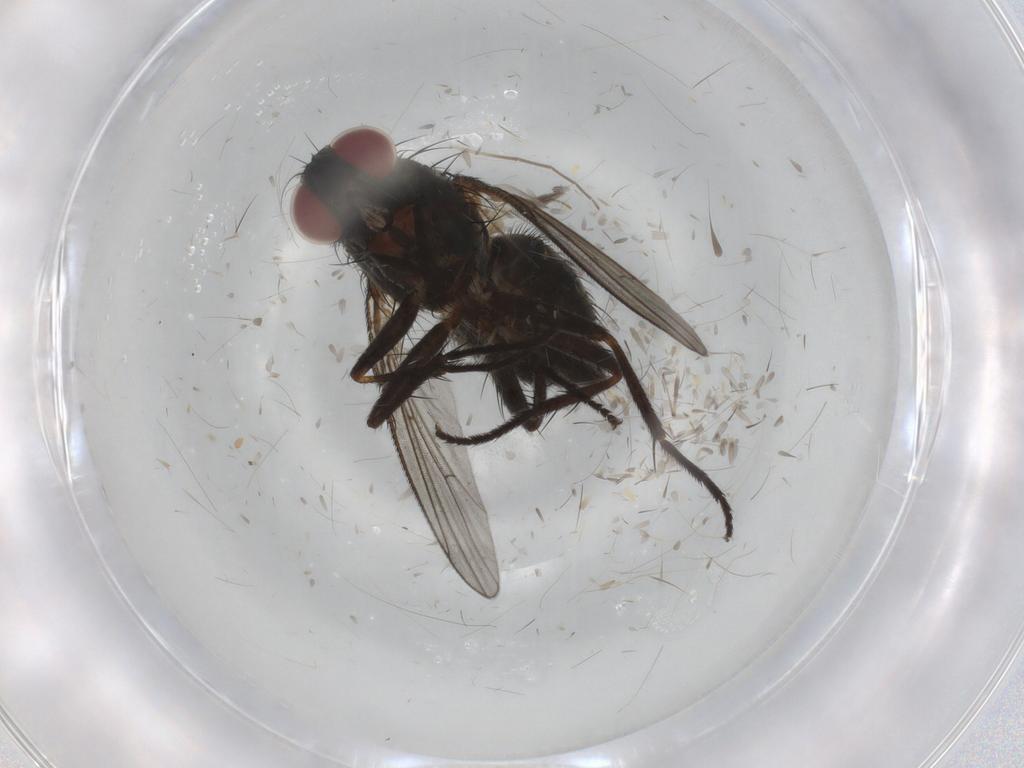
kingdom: Animalia
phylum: Arthropoda
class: Insecta
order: Diptera
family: Muscidae
